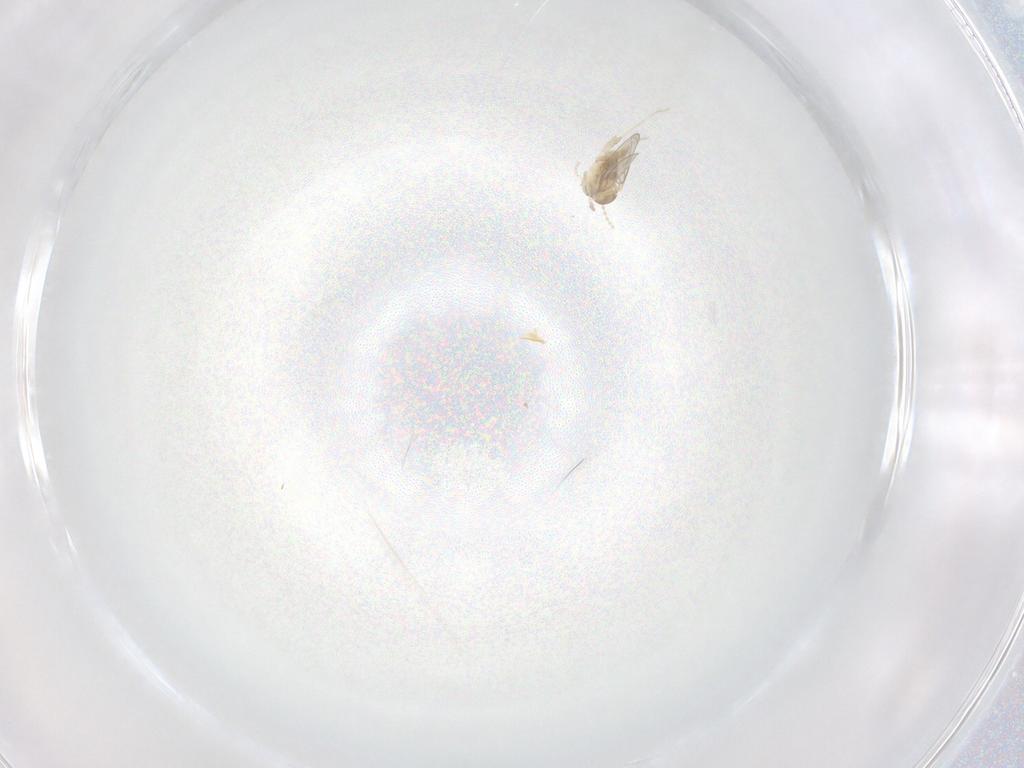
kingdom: Animalia
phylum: Arthropoda
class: Insecta
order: Diptera
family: Cecidomyiidae
